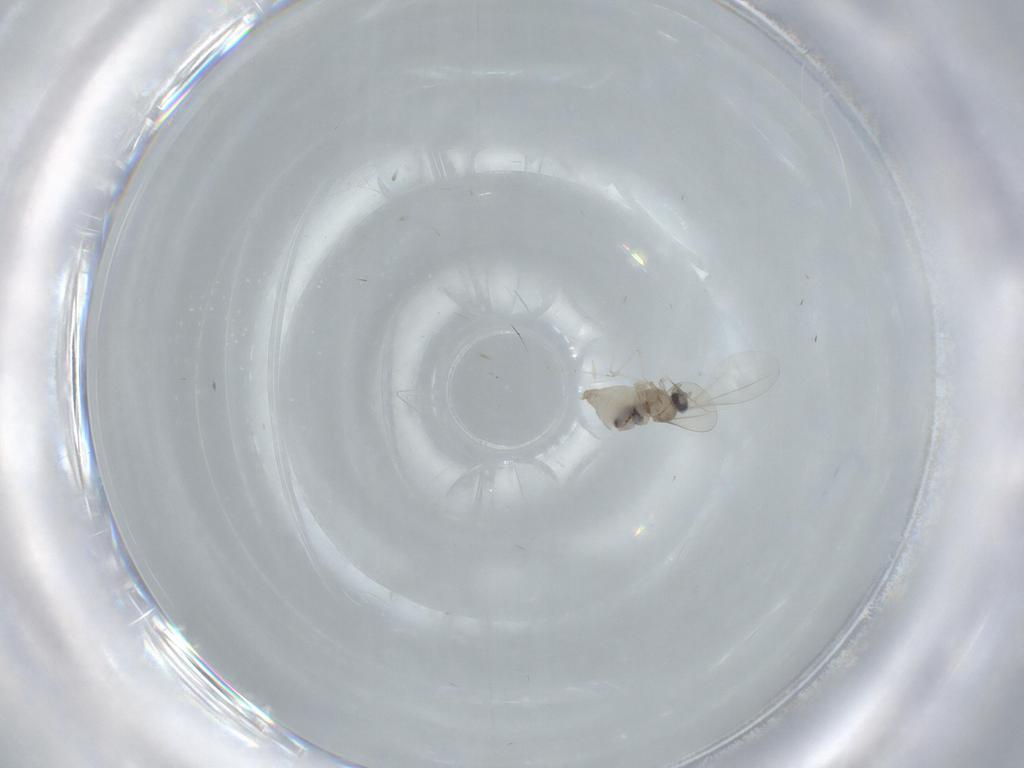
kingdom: Animalia
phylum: Arthropoda
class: Insecta
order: Diptera
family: Cecidomyiidae
